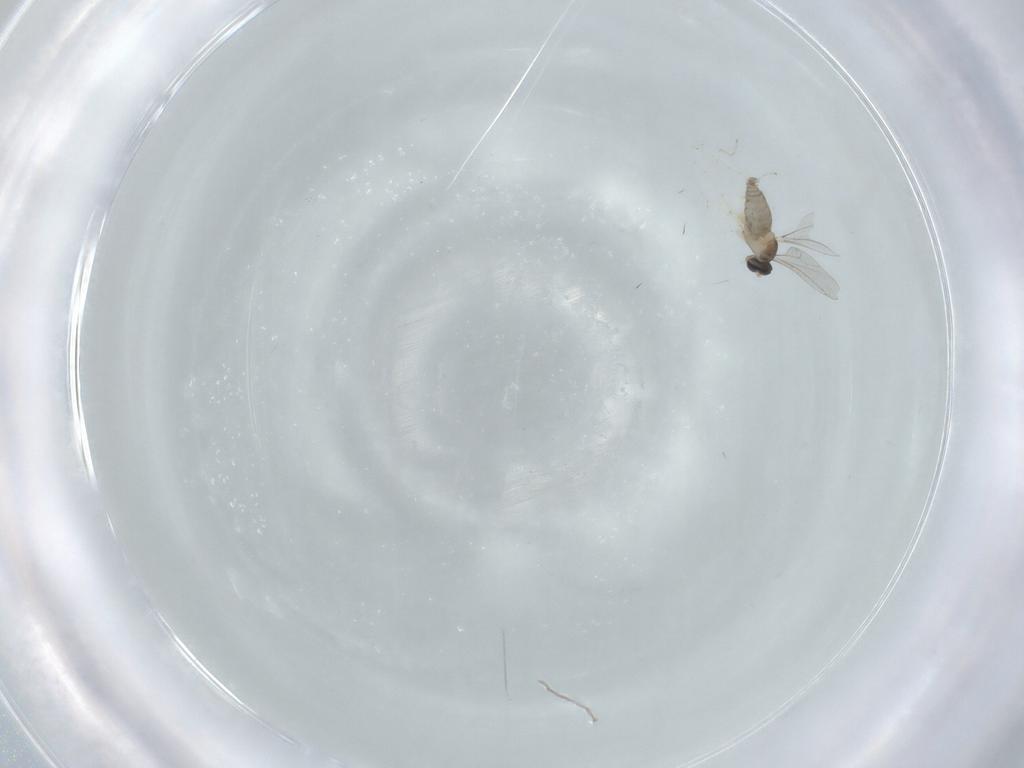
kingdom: Animalia
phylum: Arthropoda
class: Insecta
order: Diptera
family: Cecidomyiidae
